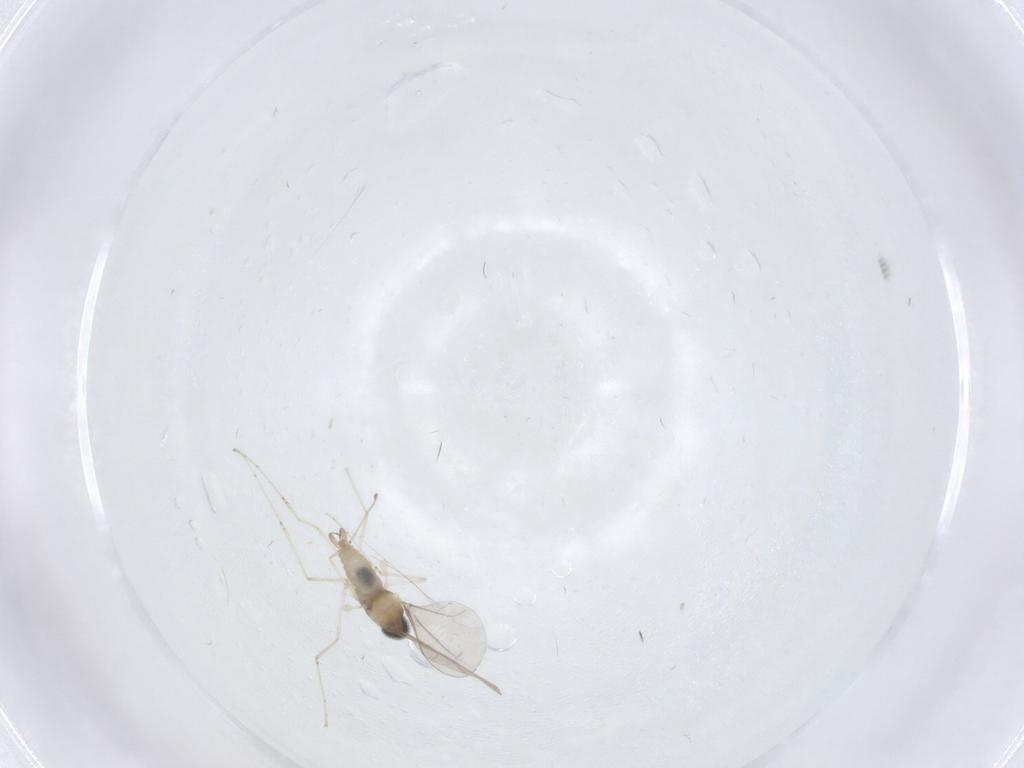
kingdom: Animalia
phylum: Arthropoda
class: Insecta
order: Diptera
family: Cecidomyiidae
